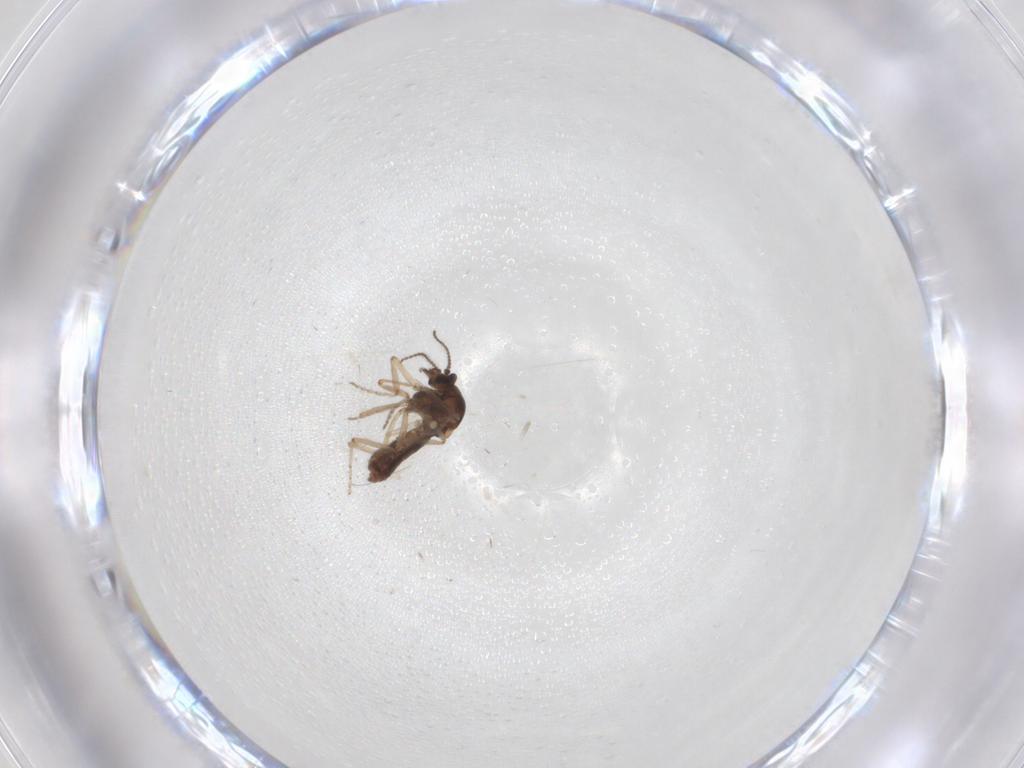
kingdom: Animalia
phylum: Arthropoda
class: Insecta
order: Diptera
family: Ceratopogonidae
